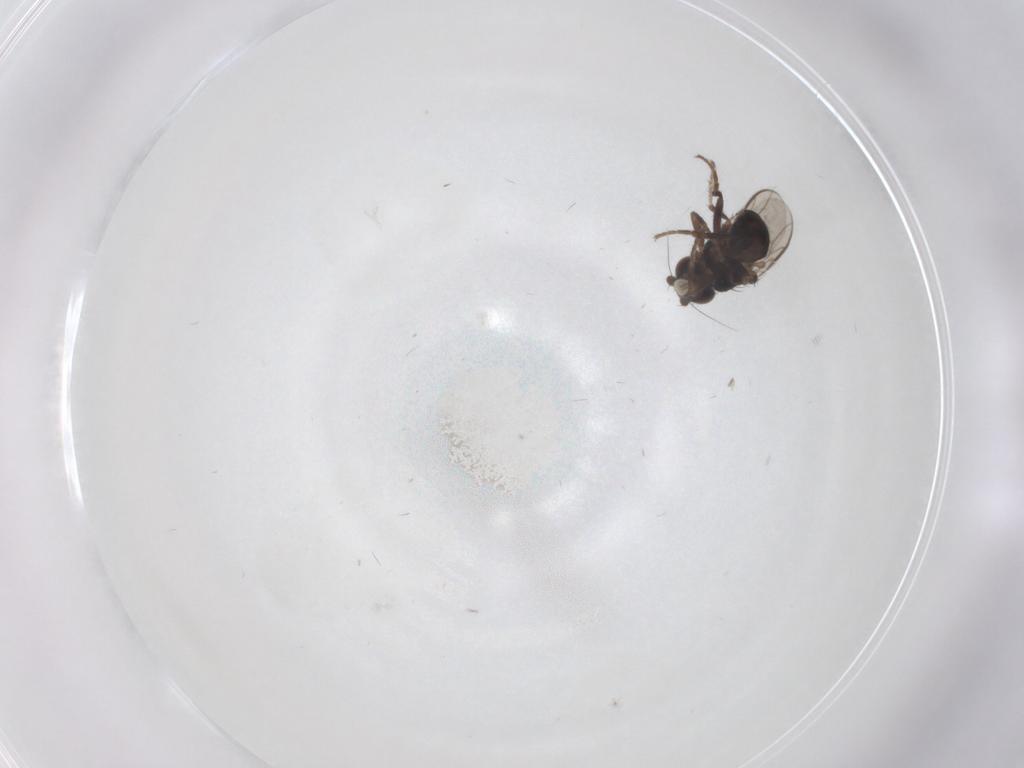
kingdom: Animalia
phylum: Arthropoda
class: Insecta
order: Diptera
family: Sphaeroceridae
